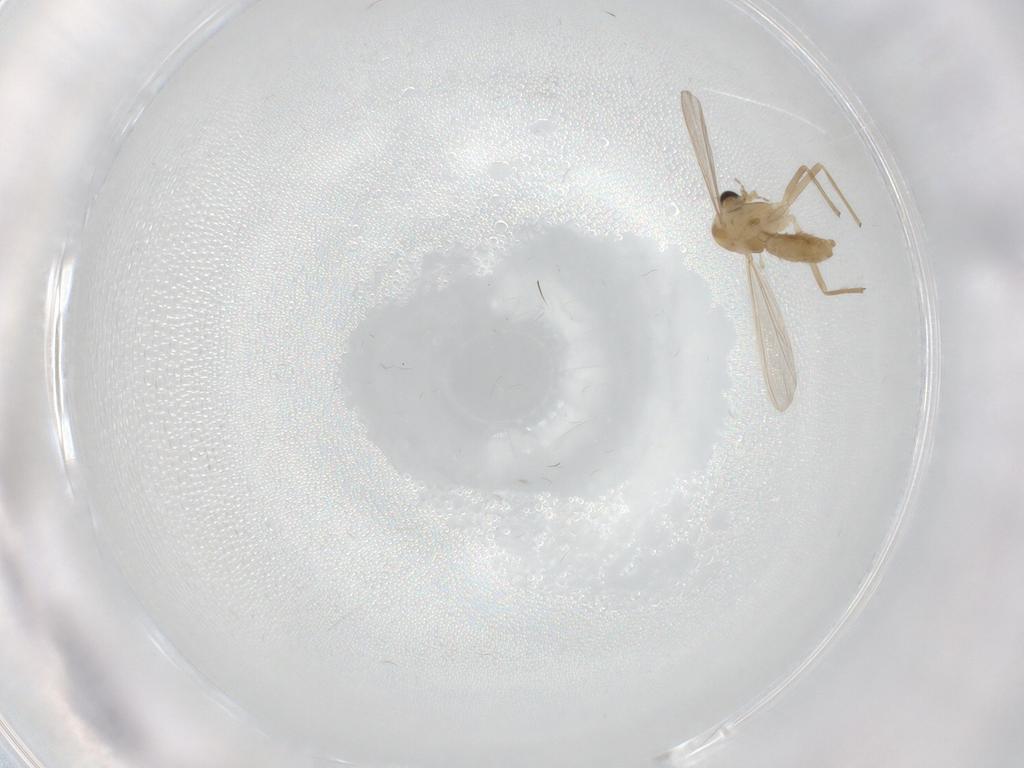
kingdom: Animalia
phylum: Arthropoda
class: Insecta
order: Diptera
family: Chironomidae
